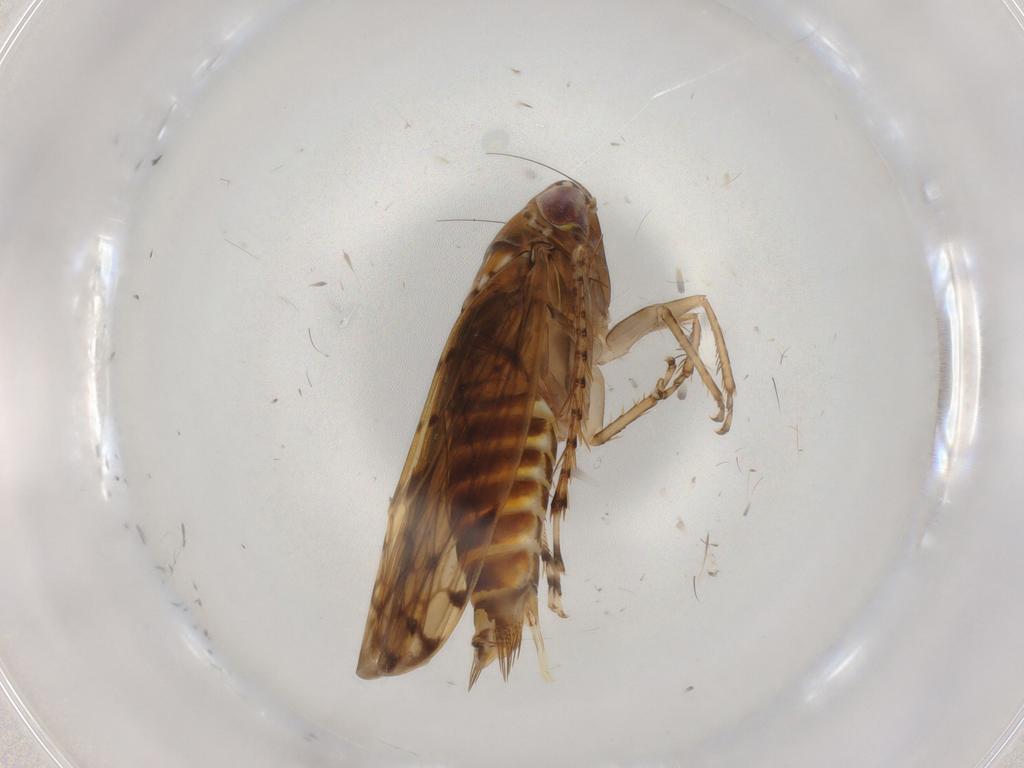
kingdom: Animalia
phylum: Arthropoda
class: Insecta
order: Hemiptera
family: Cicadellidae
